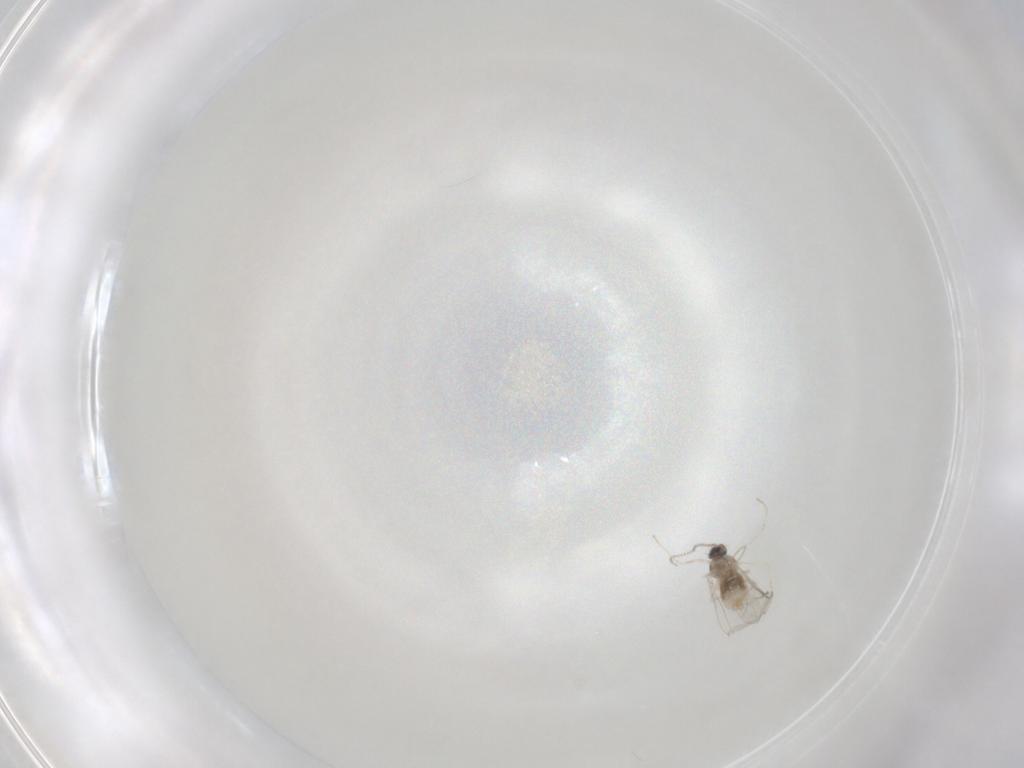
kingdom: Animalia
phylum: Arthropoda
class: Insecta
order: Diptera
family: Cecidomyiidae
